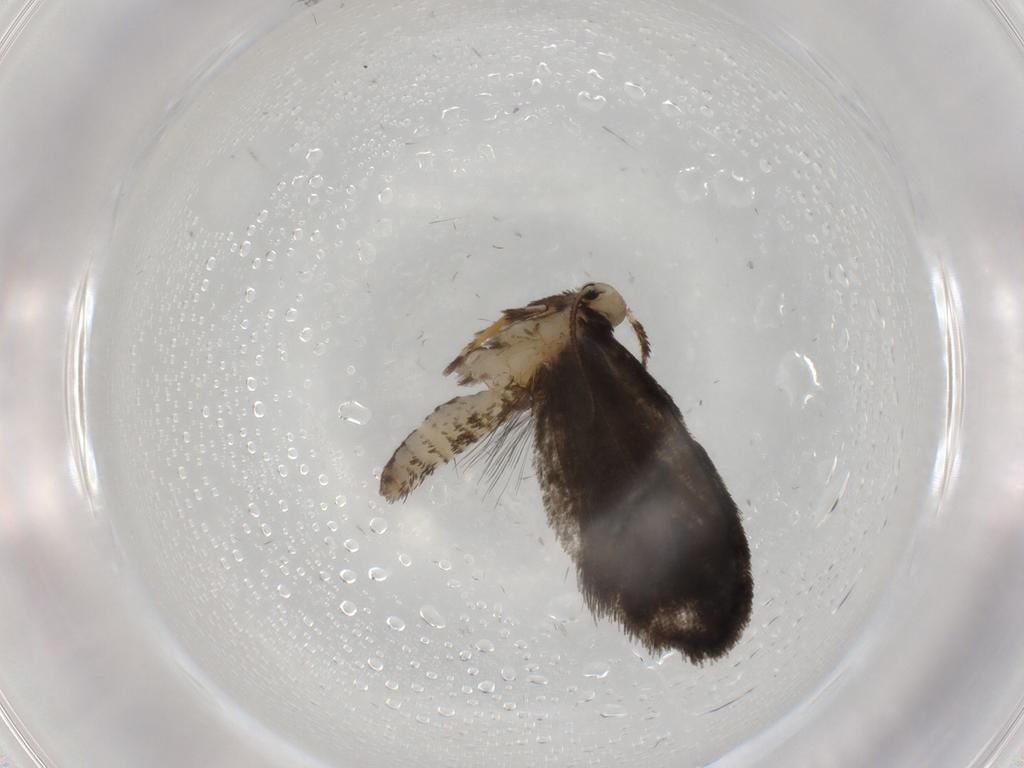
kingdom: Animalia
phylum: Arthropoda
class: Insecta
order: Lepidoptera
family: Psychidae
